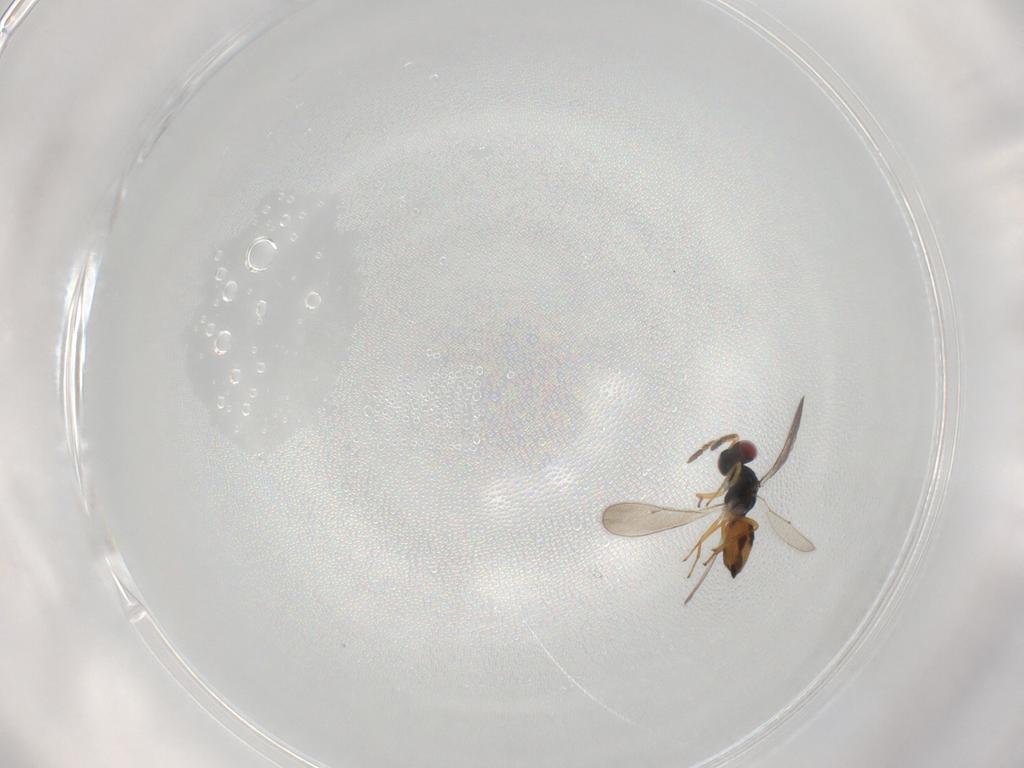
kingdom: Animalia
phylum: Arthropoda
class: Insecta
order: Hymenoptera
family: Eulophidae
